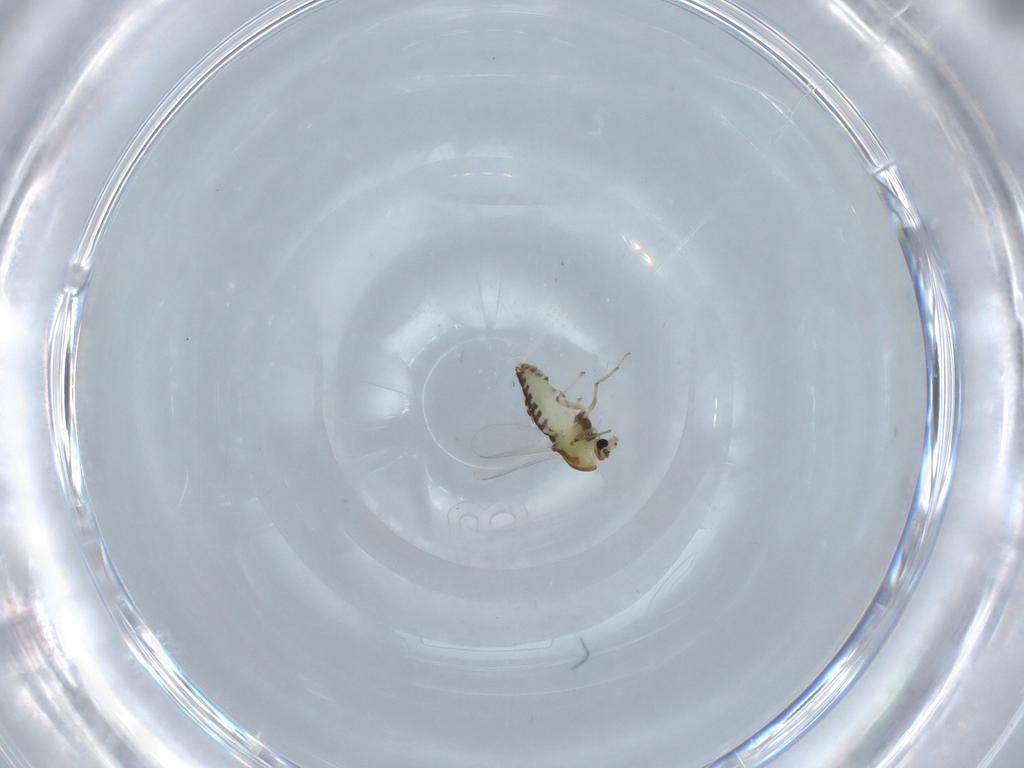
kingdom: Animalia
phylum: Arthropoda
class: Insecta
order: Diptera
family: Chironomidae
